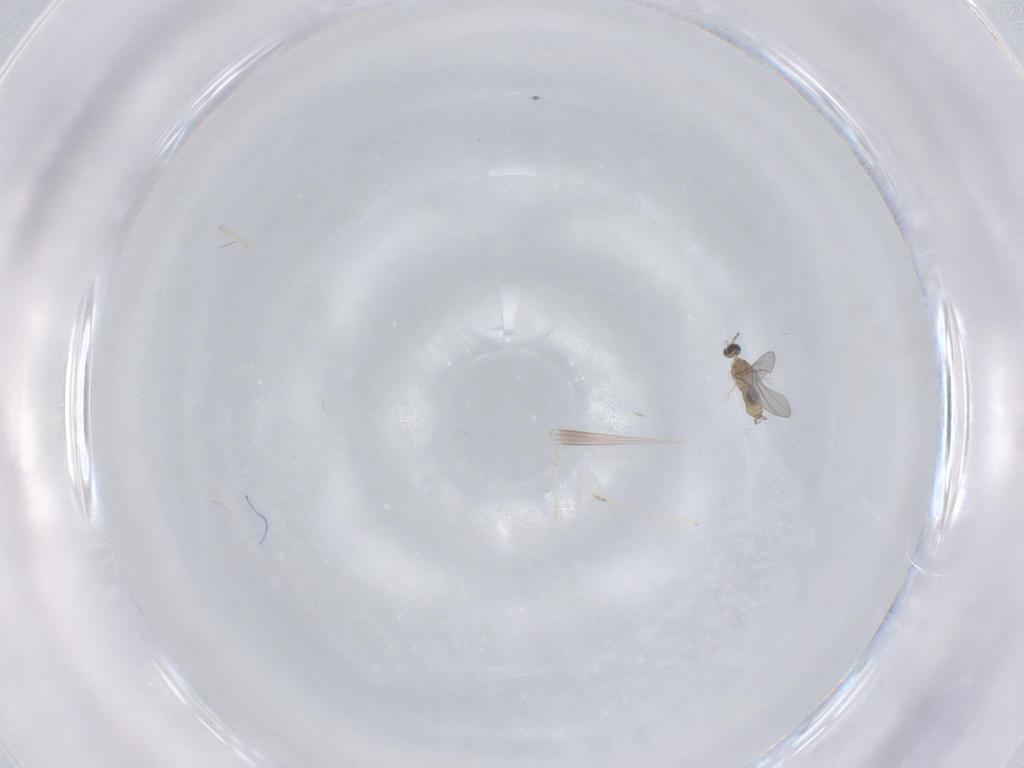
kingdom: Animalia
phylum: Arthropoda
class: Insecta
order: Diptera
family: Cecidomyiidae
